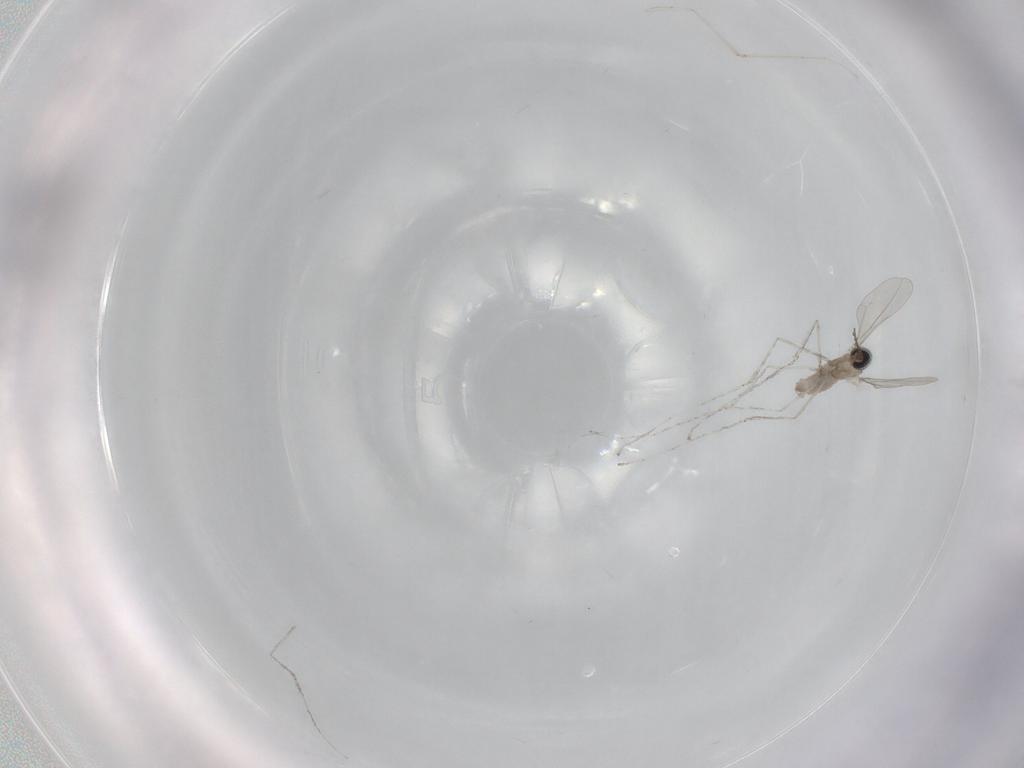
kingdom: Animalia
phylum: Arthropoda
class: Insecta
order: Diptera
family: Cecidomyiidae
